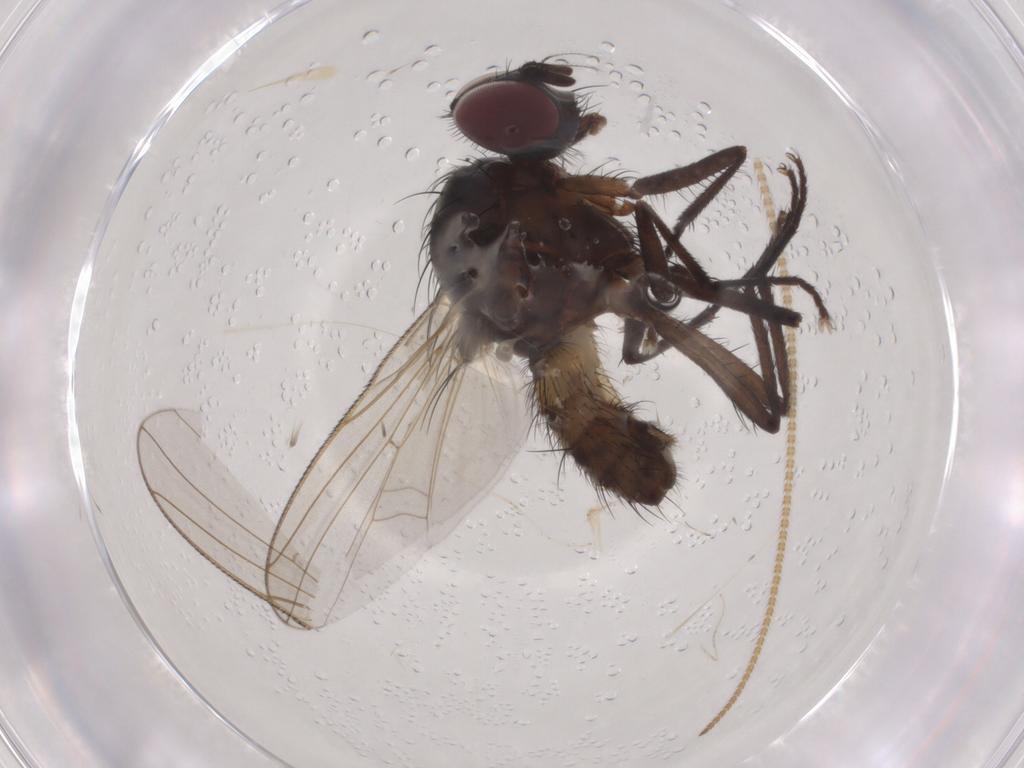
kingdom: Animalia
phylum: Arthropoda
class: Insecta
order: Diptera
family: Anthomyiidae
